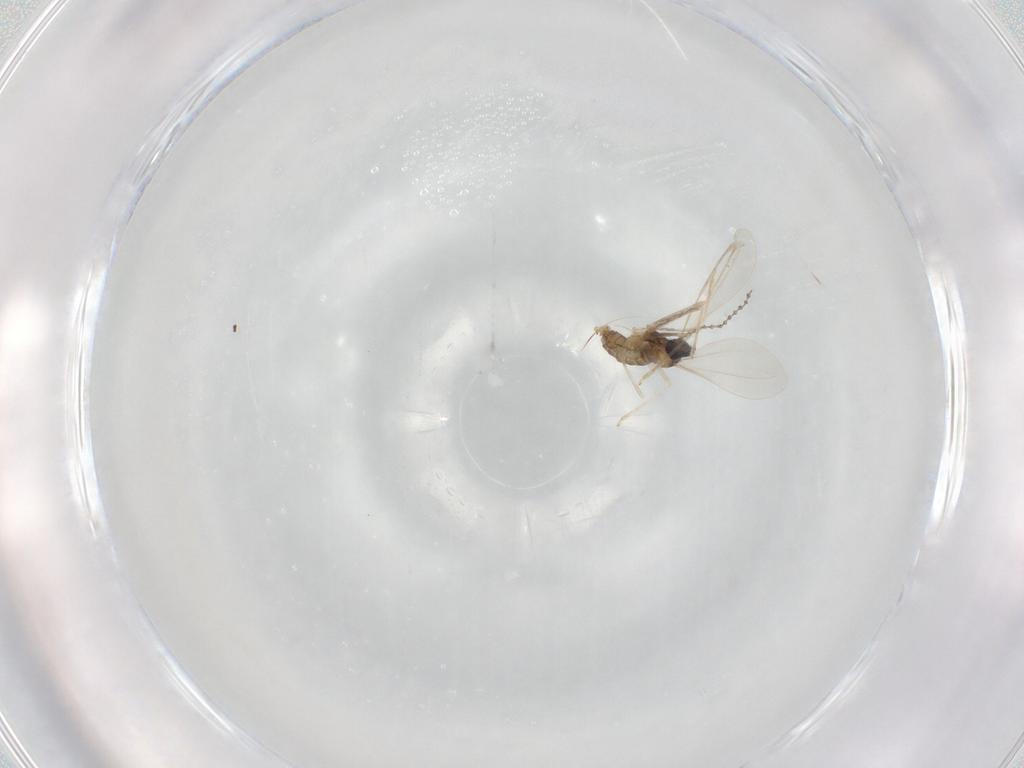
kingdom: Animalia
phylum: Arthropoda
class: Insecta
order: Diptera
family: Cecidomyiidae
